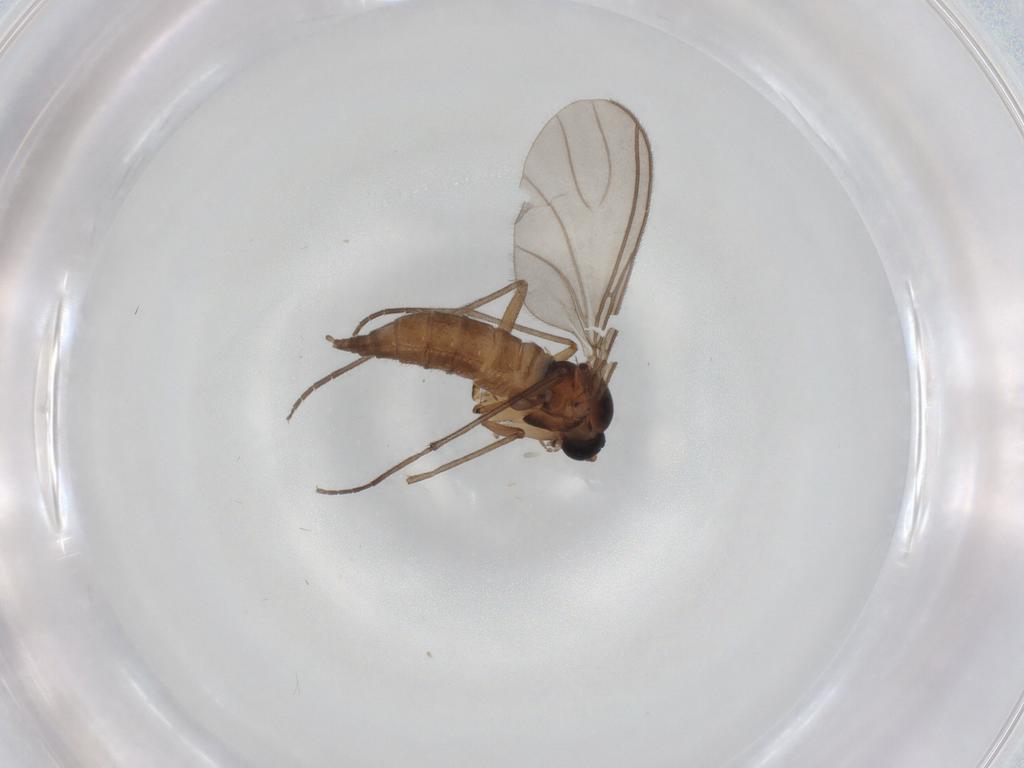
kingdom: Animalia
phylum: Arthropoda
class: Insecta
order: Diptera
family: Sciaridae
